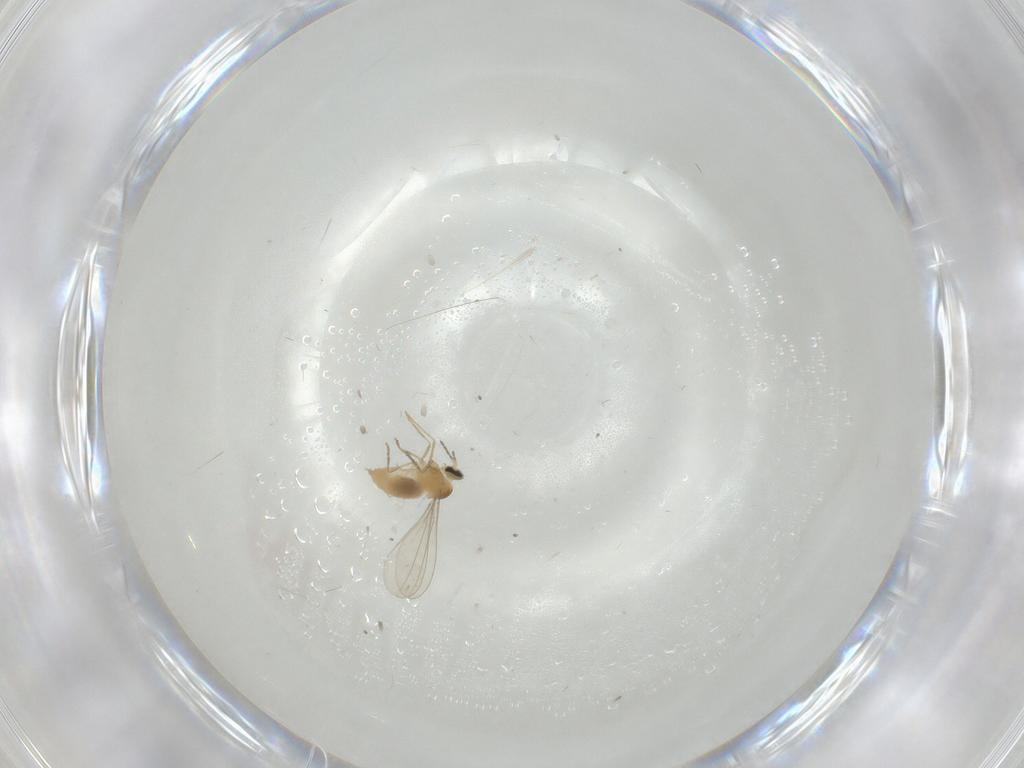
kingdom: Animalia
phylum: Arthropoda
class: Insecta
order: Diptera
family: Cecidomyiidae
